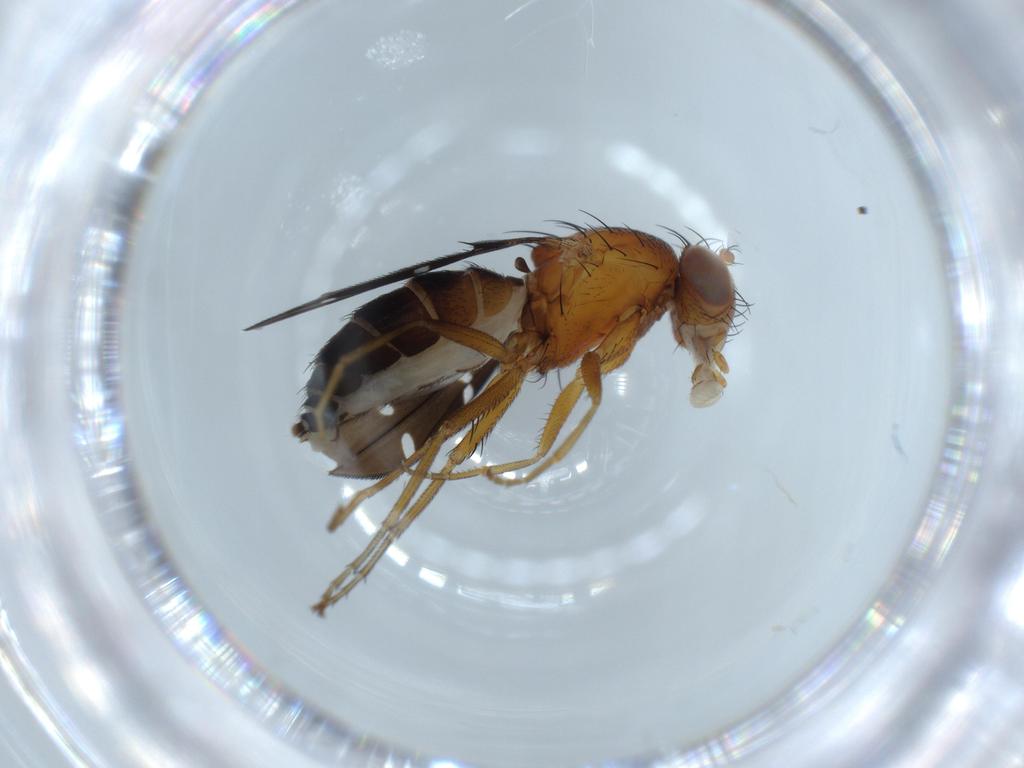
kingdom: Animalia
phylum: Arthropoda
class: Insecta
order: Diptera
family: Ephydridae
